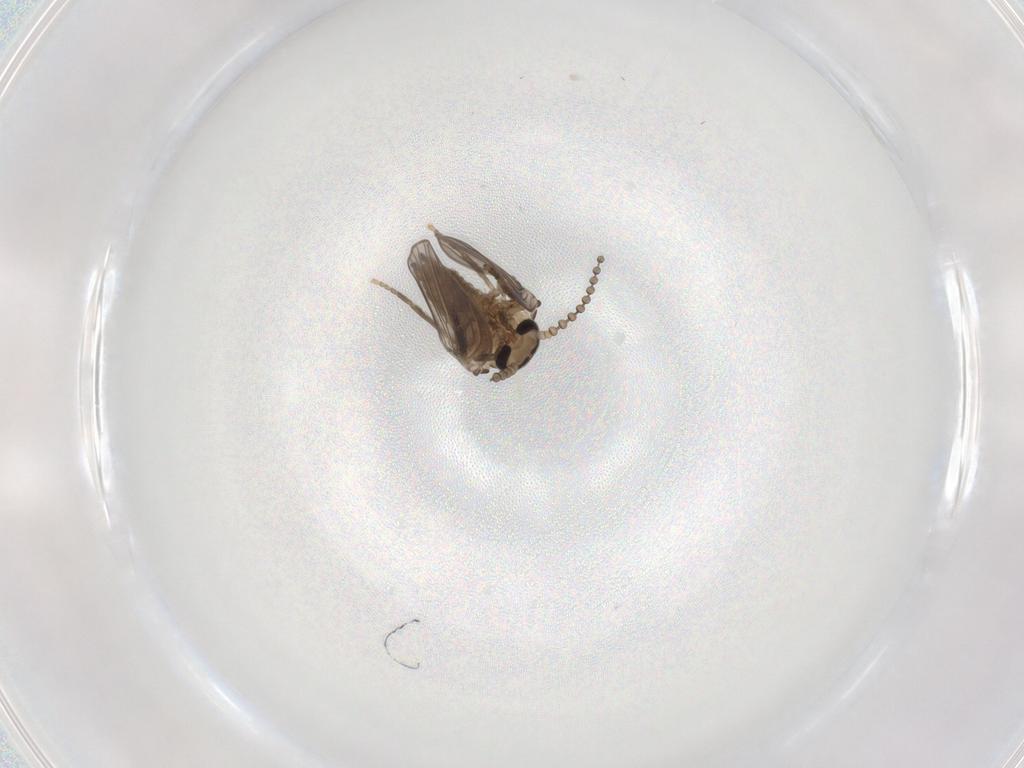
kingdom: Animalia
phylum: Arthropoda
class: Insecta
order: Diptera
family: Psychodidae
